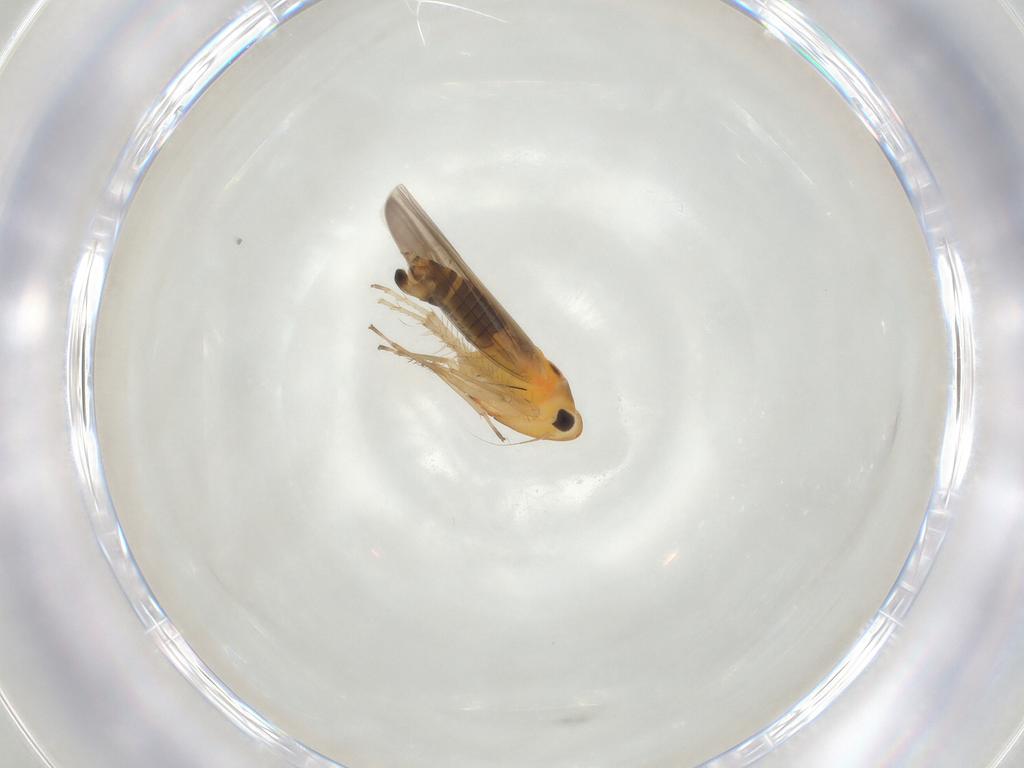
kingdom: Animalia
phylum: Arthropoda
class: Insecta
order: Hemiptera
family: Cicadellidae
